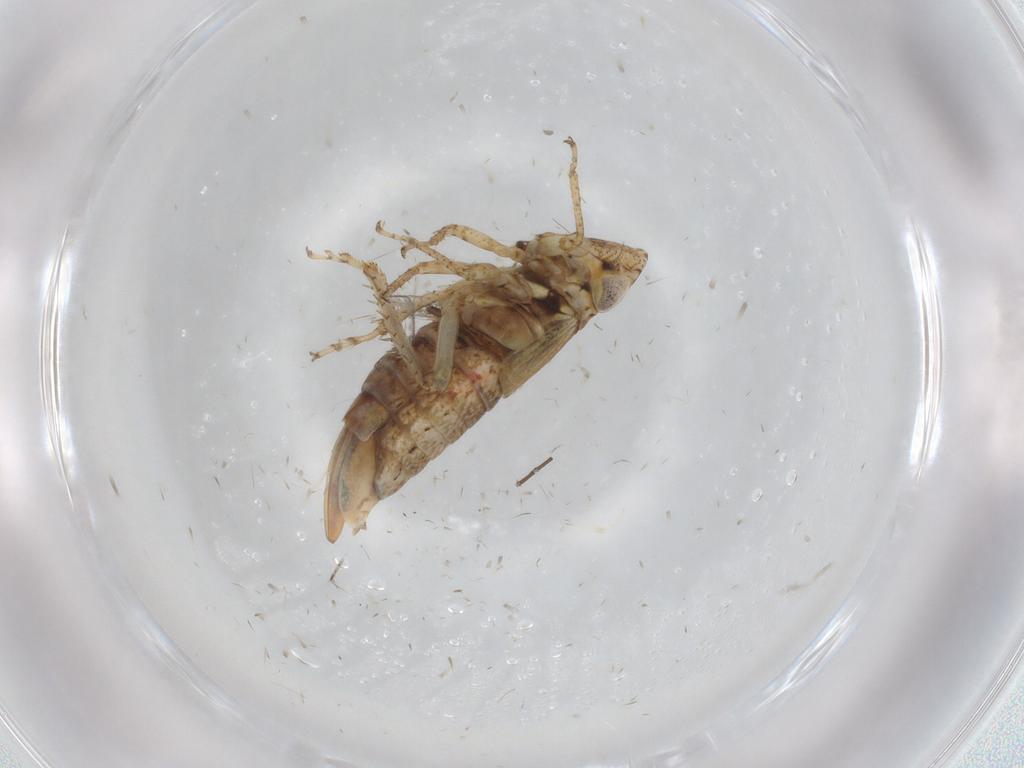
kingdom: Animalia
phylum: Arthropoda
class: Insecta
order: Hemiptera
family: Cicadellidae
